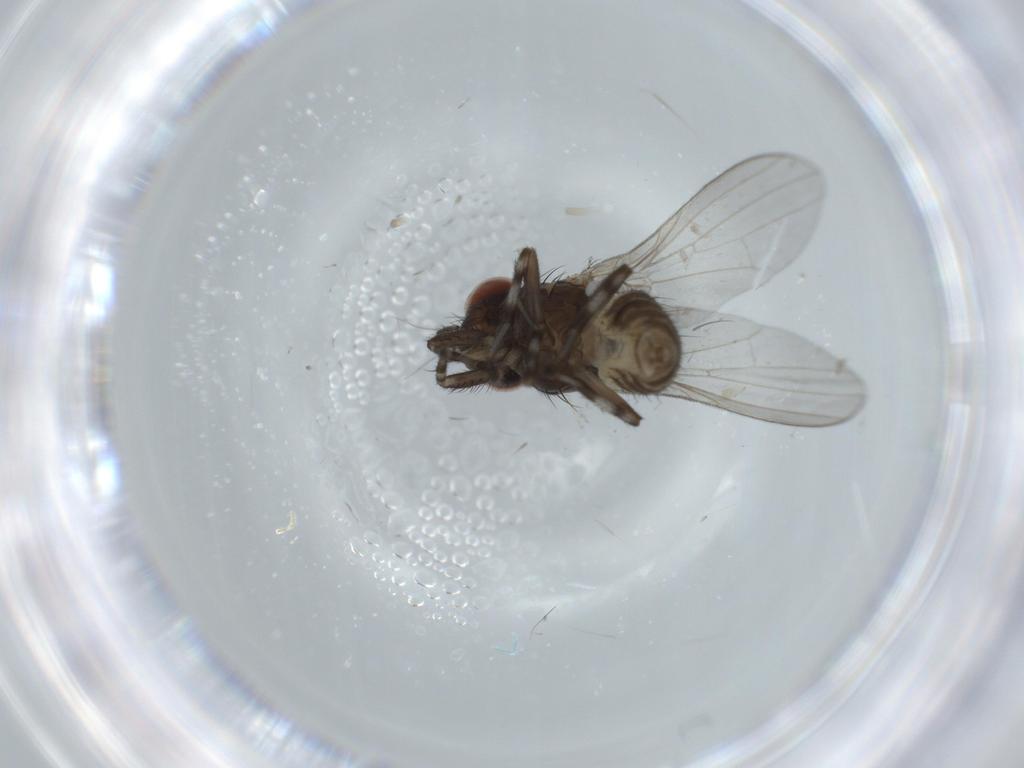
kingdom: Animalia
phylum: Arthropoda
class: Insecta
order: Diptera
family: Chironomidae
